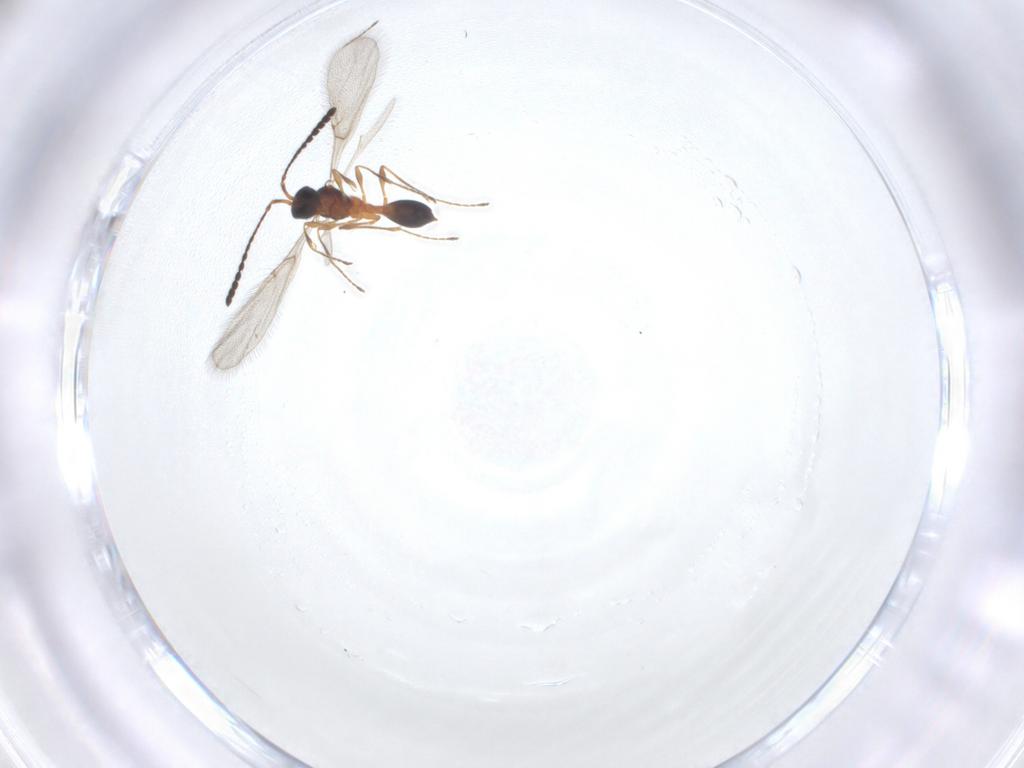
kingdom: Animalia
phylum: Arthropoda
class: Insecta
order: Hymenoptera
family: Diapriidae
